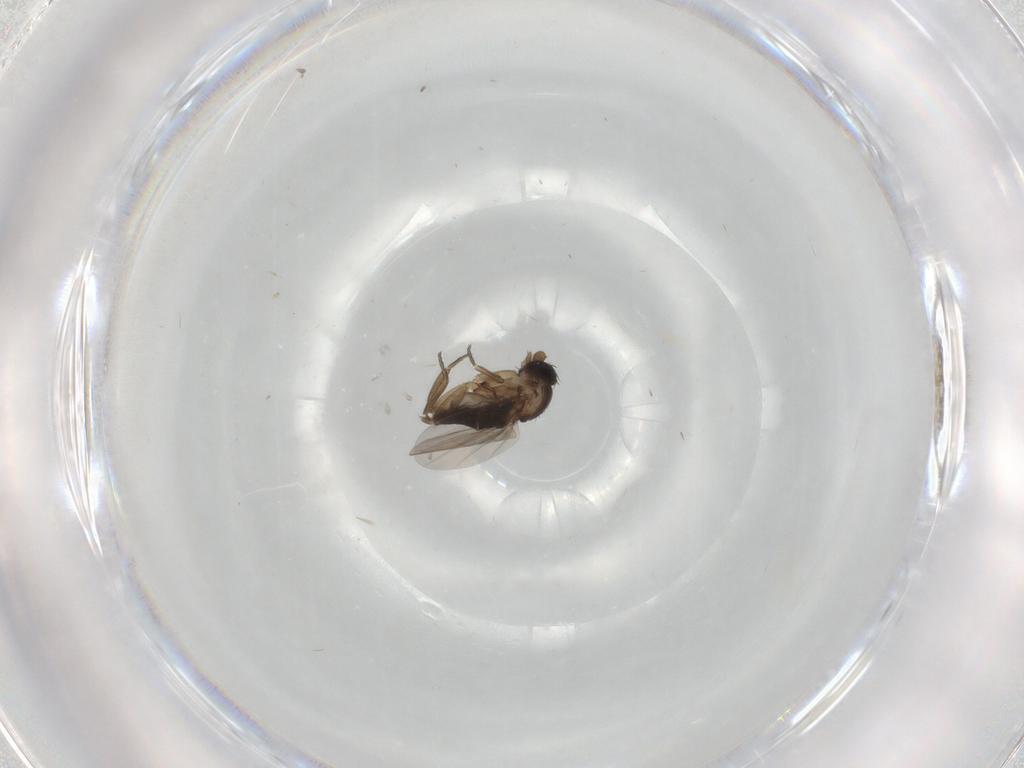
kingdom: Animalia
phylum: Arthropoda
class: Insecta
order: Diptera
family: Phoridae
